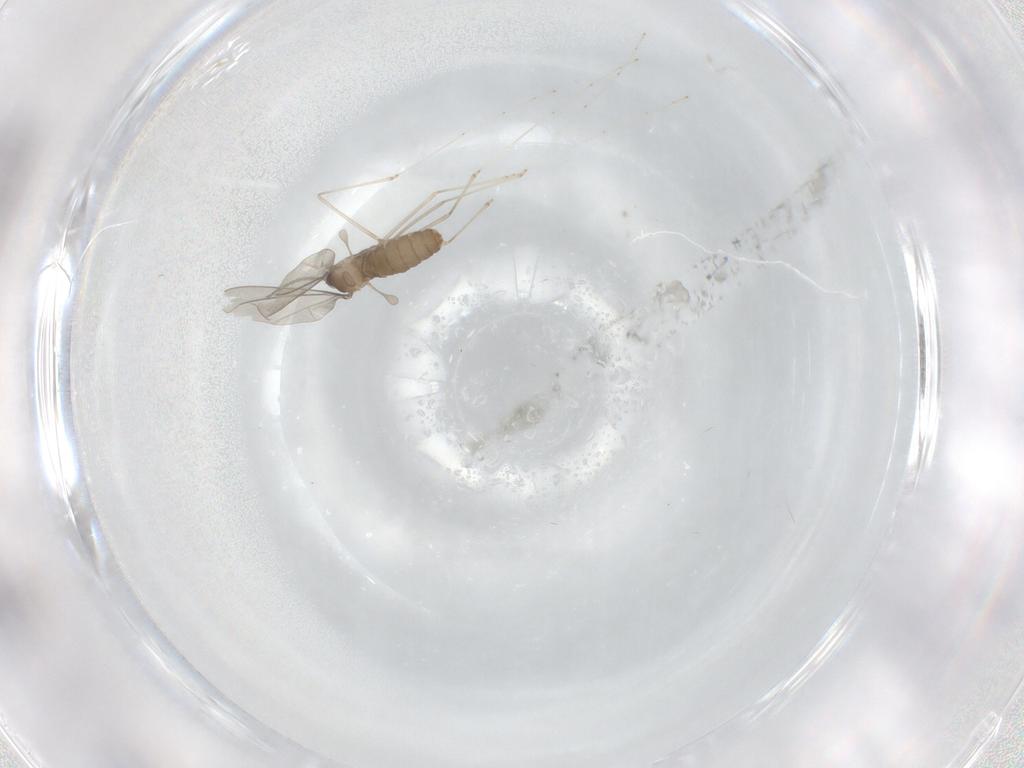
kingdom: Animalia
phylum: Arthropoda
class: Insecta
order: Diptera
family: Chironomidae
